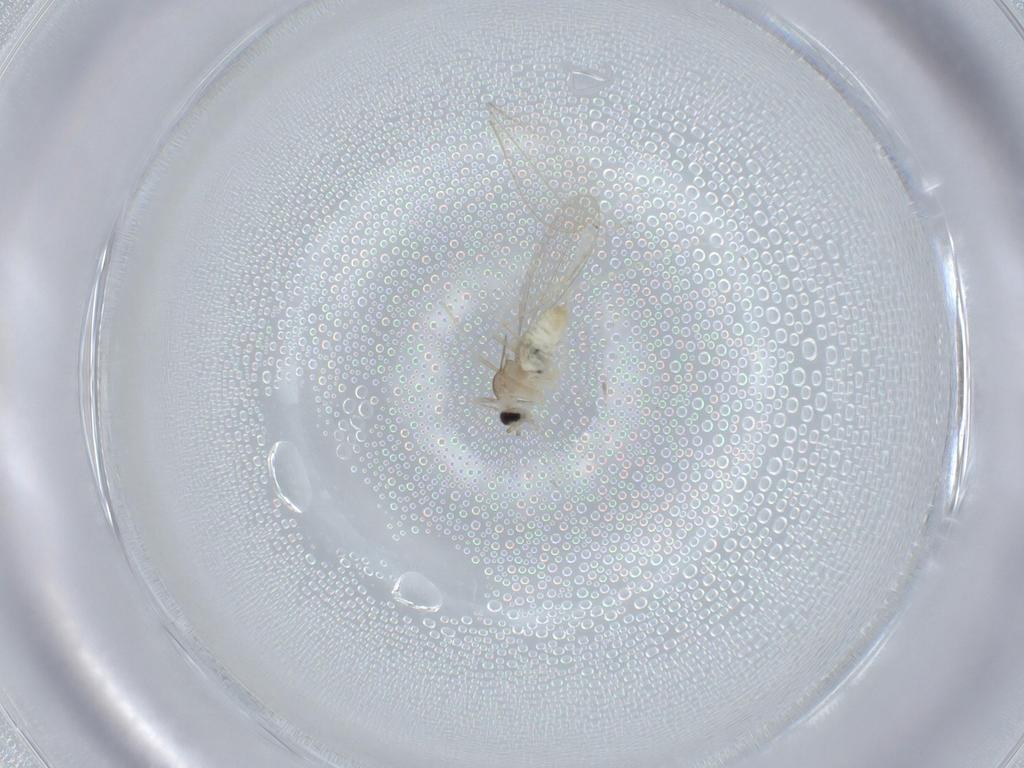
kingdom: Animalia
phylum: Arthropoda
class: Insecta
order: Diptera
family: Cecidomyiidae
